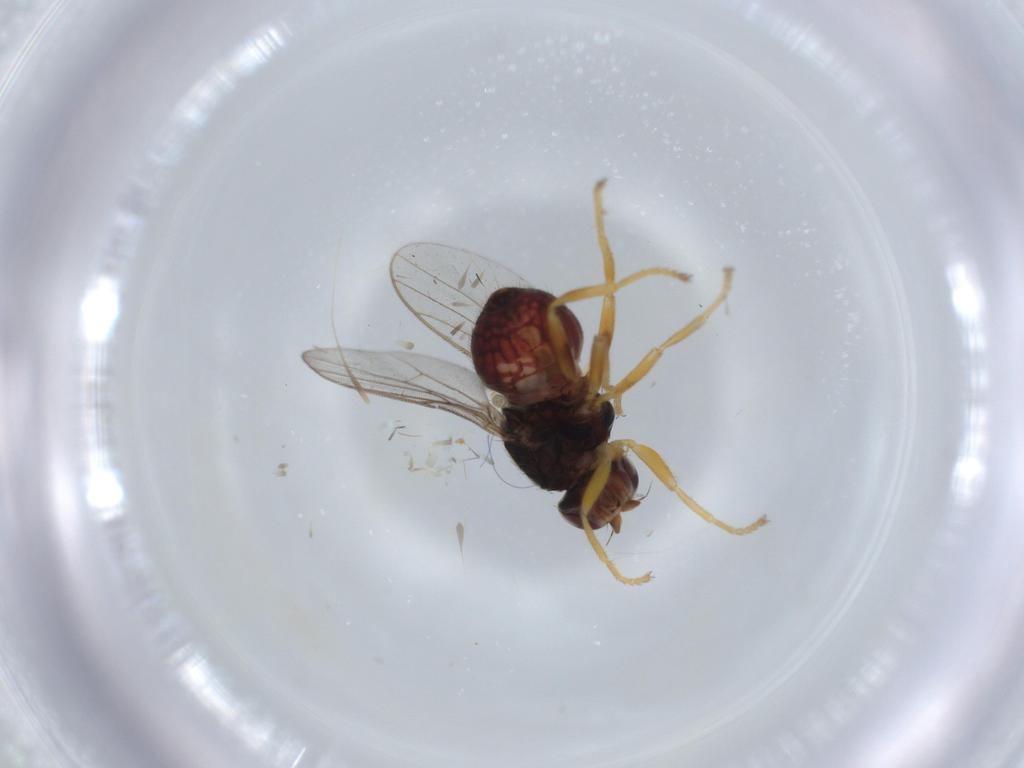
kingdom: Animalia
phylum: Arthropoda
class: Insecta
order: Diptera
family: Chloropidae
